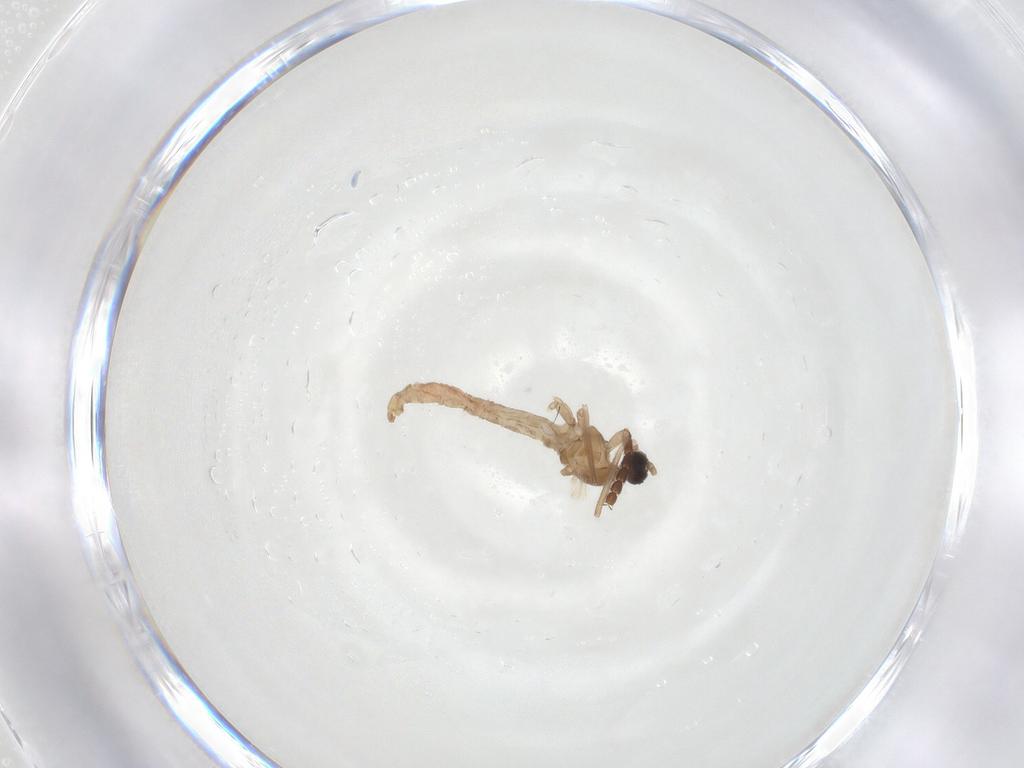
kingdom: Animalia
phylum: Arthropoda
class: Insecta
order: Diptera
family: Cecidomyiidae
